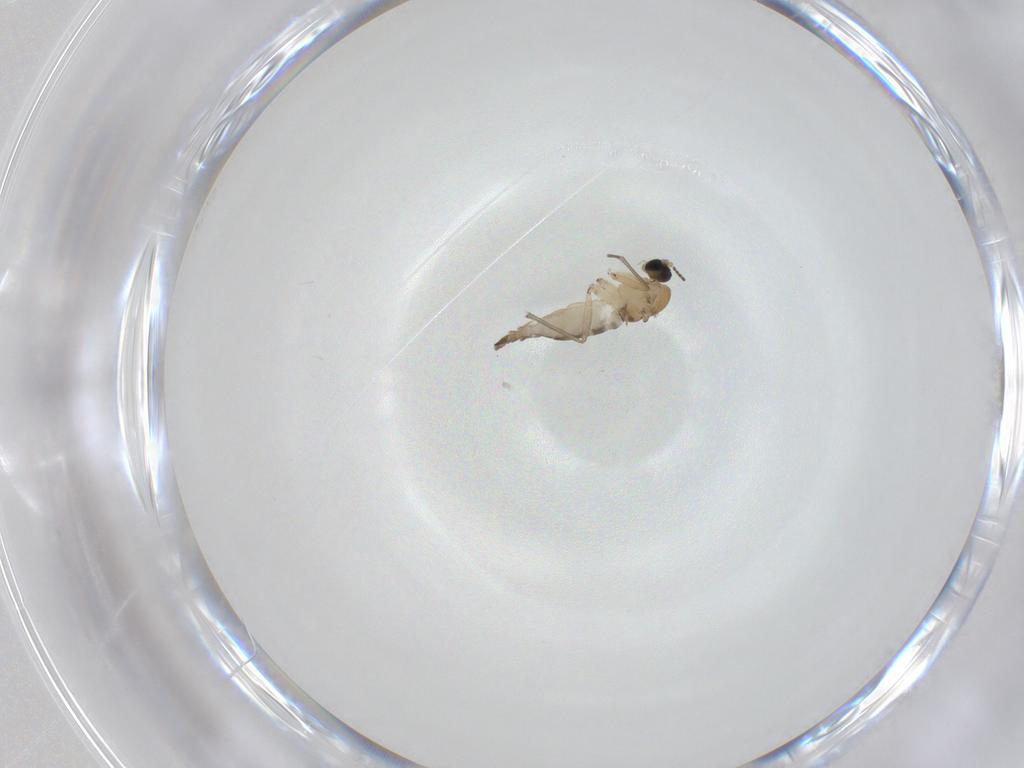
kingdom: Animalia
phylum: Arthropoda
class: Insecta
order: Diptera
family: Sciaridae
